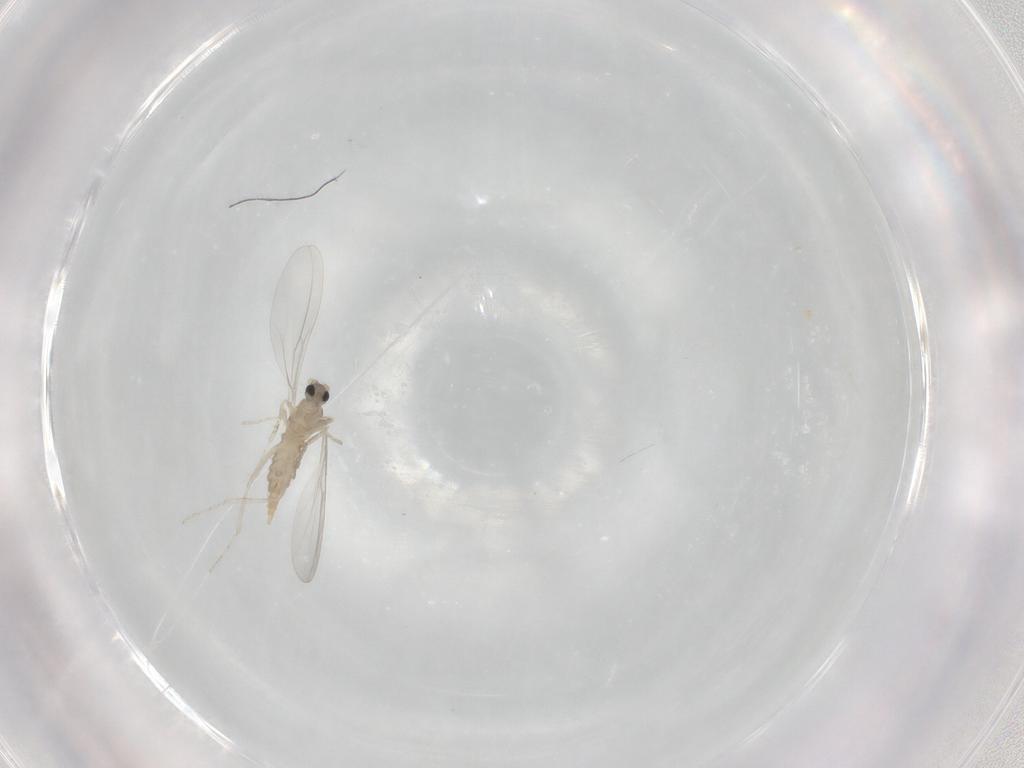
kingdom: Animalia
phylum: Arthropoda
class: Insecta
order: Diptera
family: Cecidomyiidae
